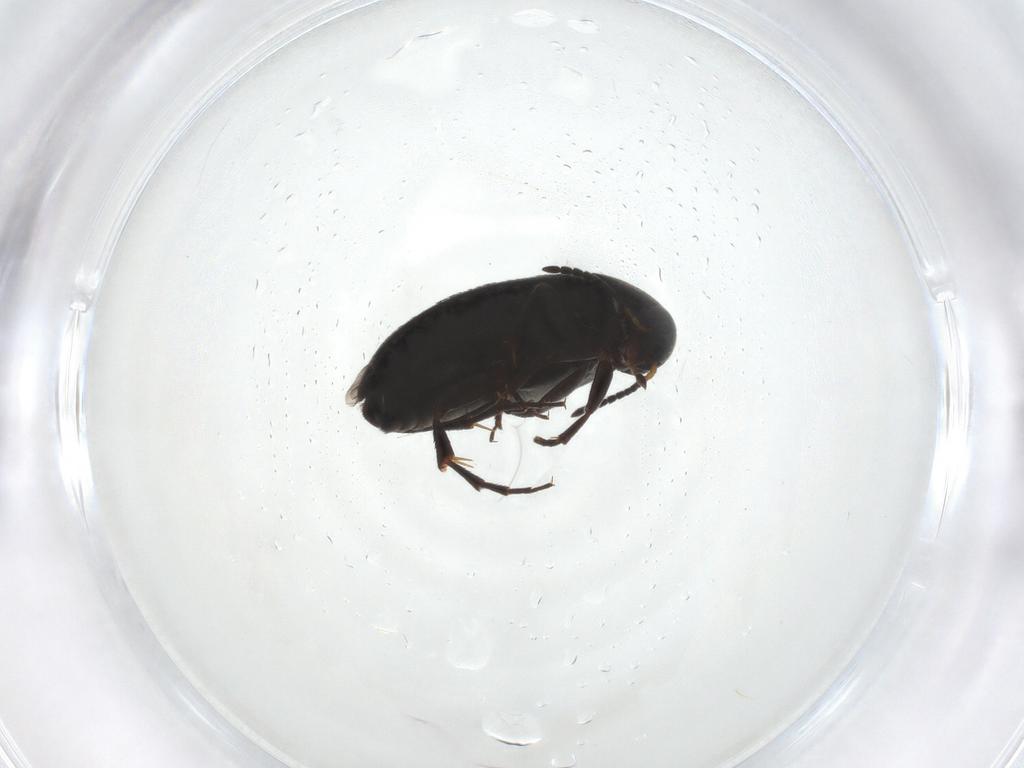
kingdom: Animalia
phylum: Arthropoda
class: Insecta
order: Coleoptera
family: Scraptiidae
